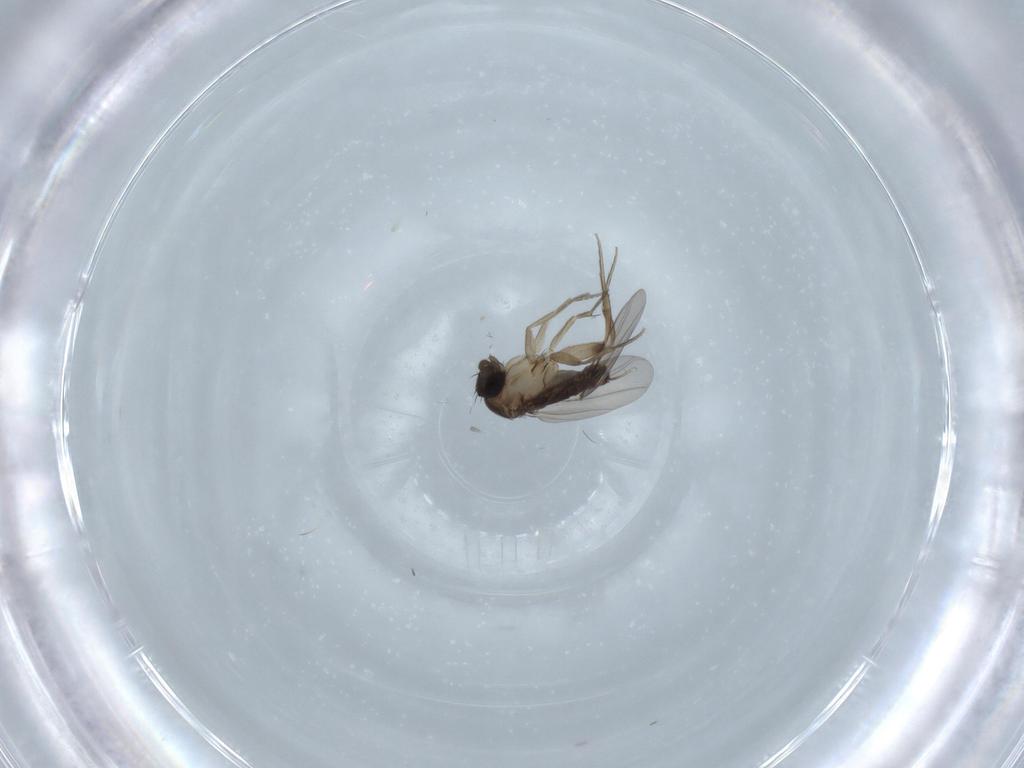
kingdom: Animalia
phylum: Arthropoda
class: Insecta
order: Diptera
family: Phoridae
